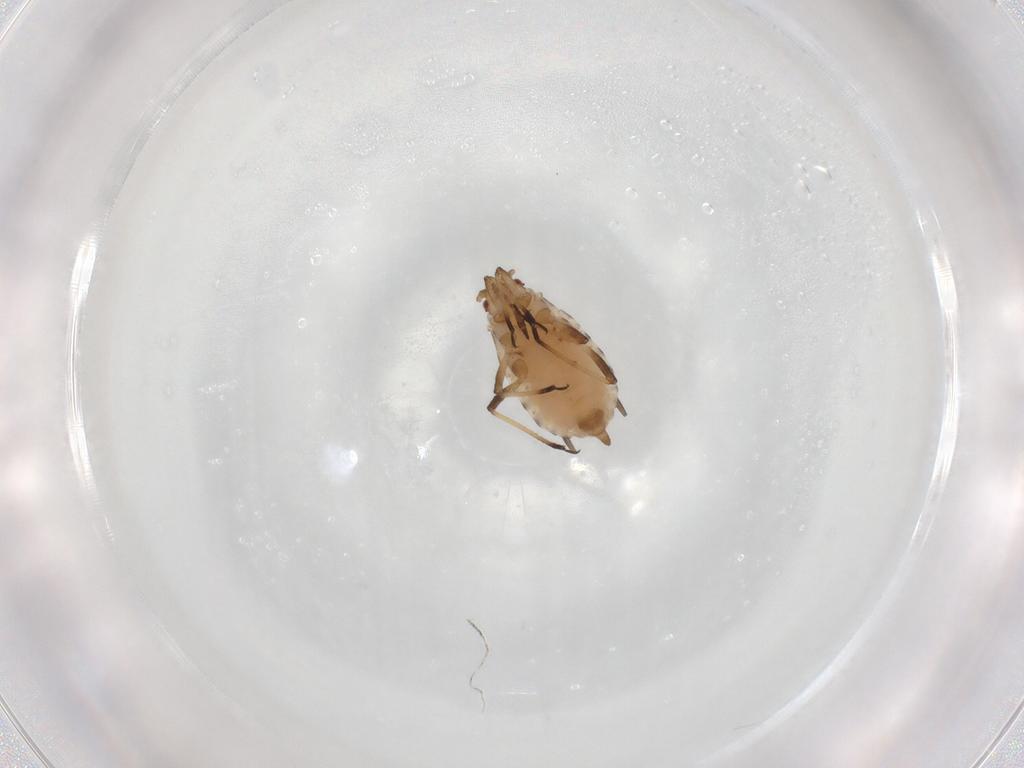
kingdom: Animalia
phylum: Arthropoda
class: Insecta
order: Hemiptera
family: Aphididae
